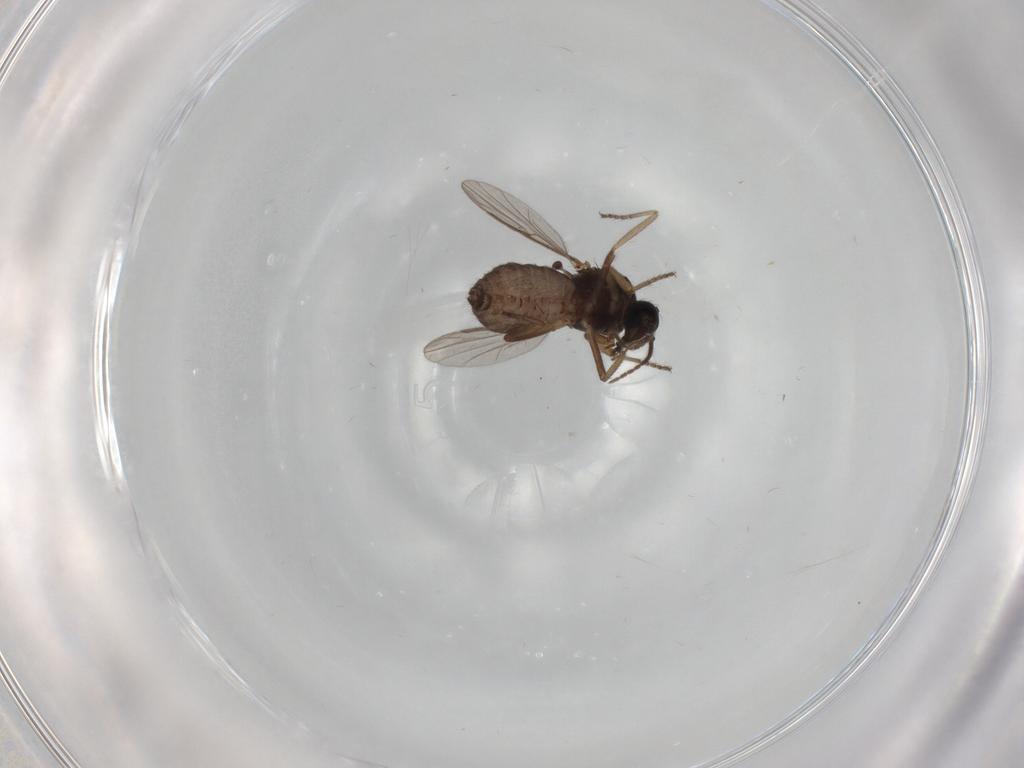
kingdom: Animalia
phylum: Arthropoda
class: Insecta
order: Diptera
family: Ceratopogonidae
